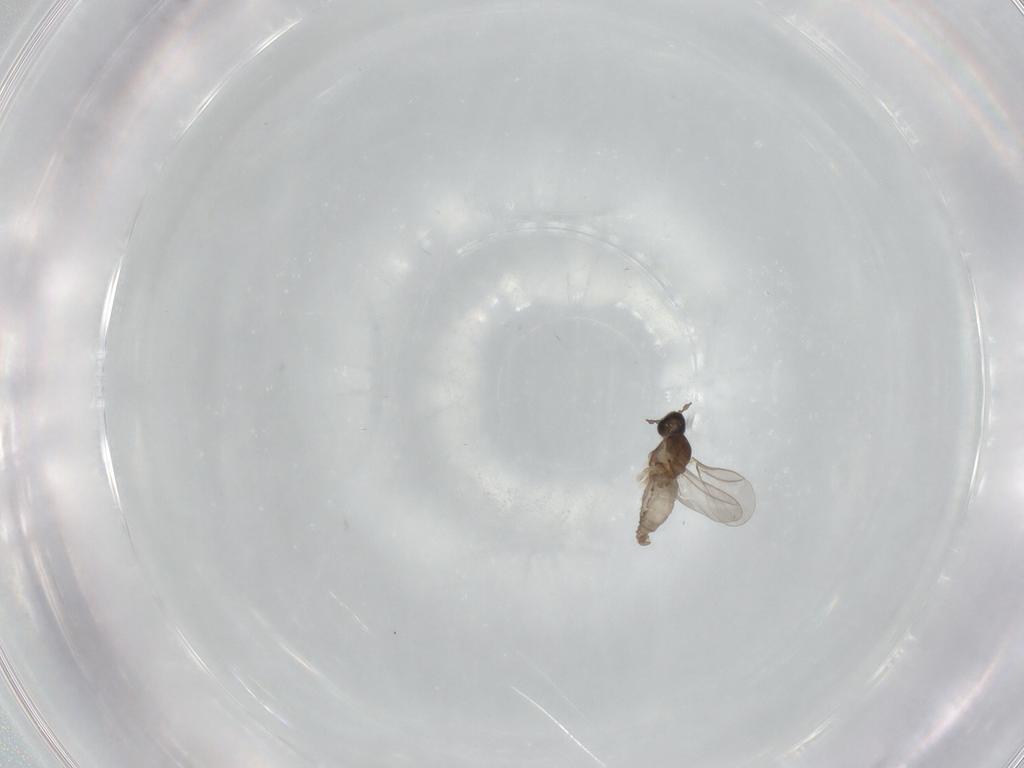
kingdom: Animalia
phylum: Arthropoda
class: Insecta
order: Diptera
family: Cecidomyiidae
